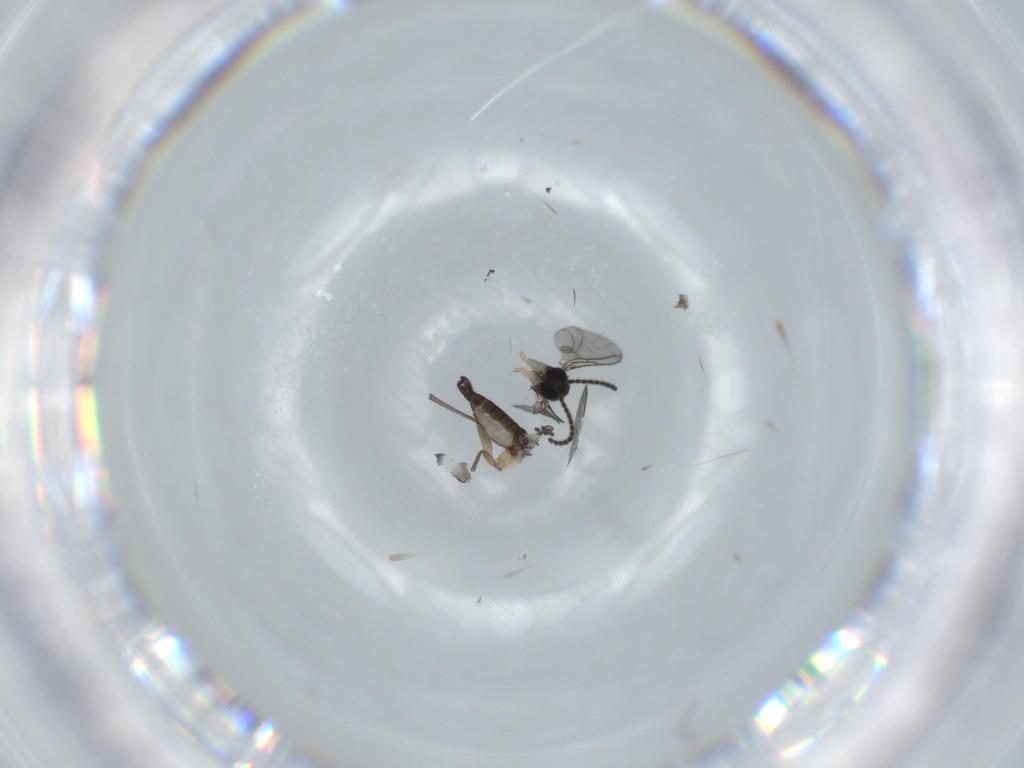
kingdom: Animalia
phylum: Arthropoda
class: Insecta
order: Diptera
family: Sciaridae
